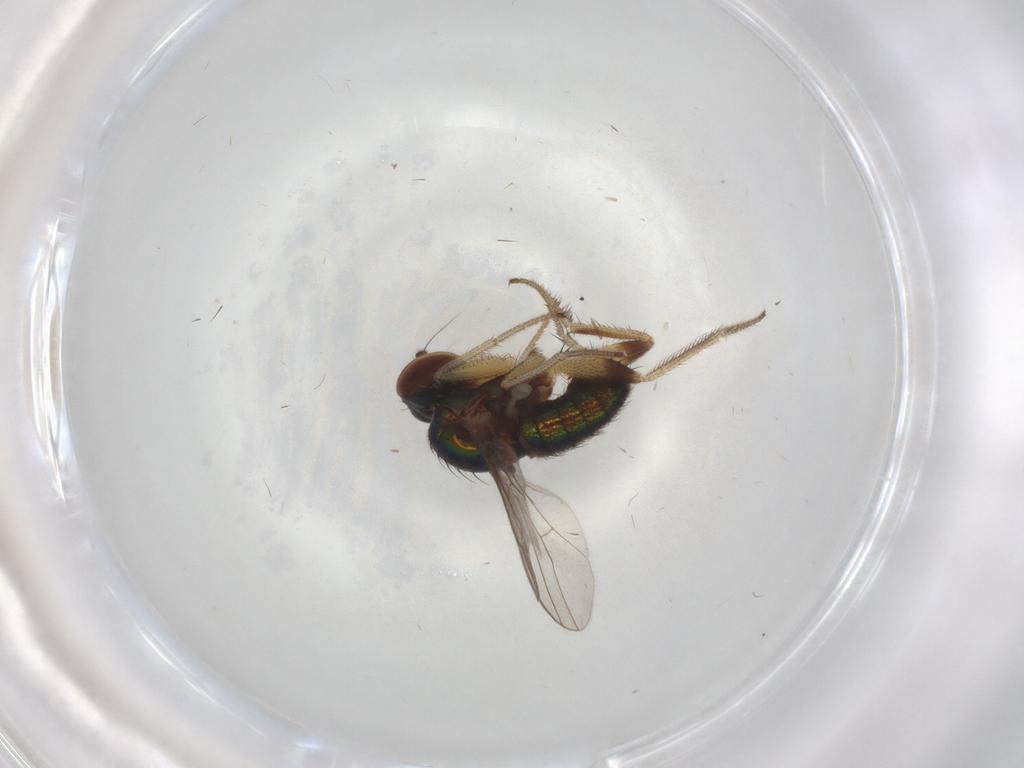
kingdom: Animalia
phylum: Arthropoda
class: Insecta
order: Diptera
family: Dolichopodidae
